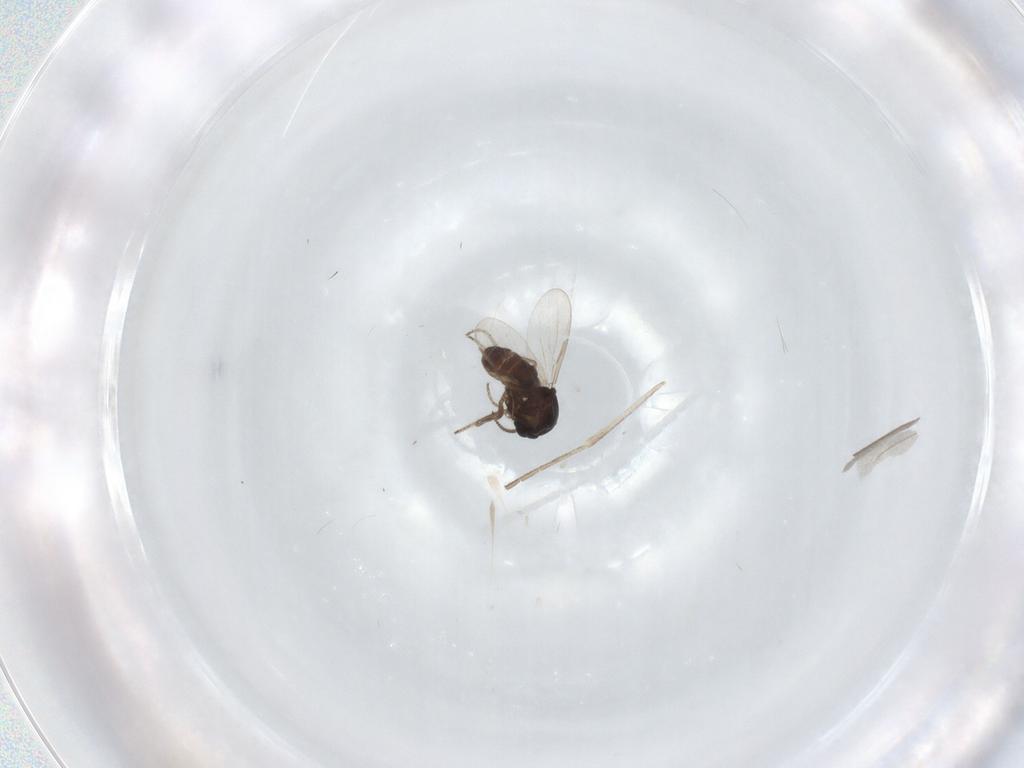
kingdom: Animalia
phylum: Arthropoda
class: Insecta
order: Diptera
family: Ceratopogonidae
